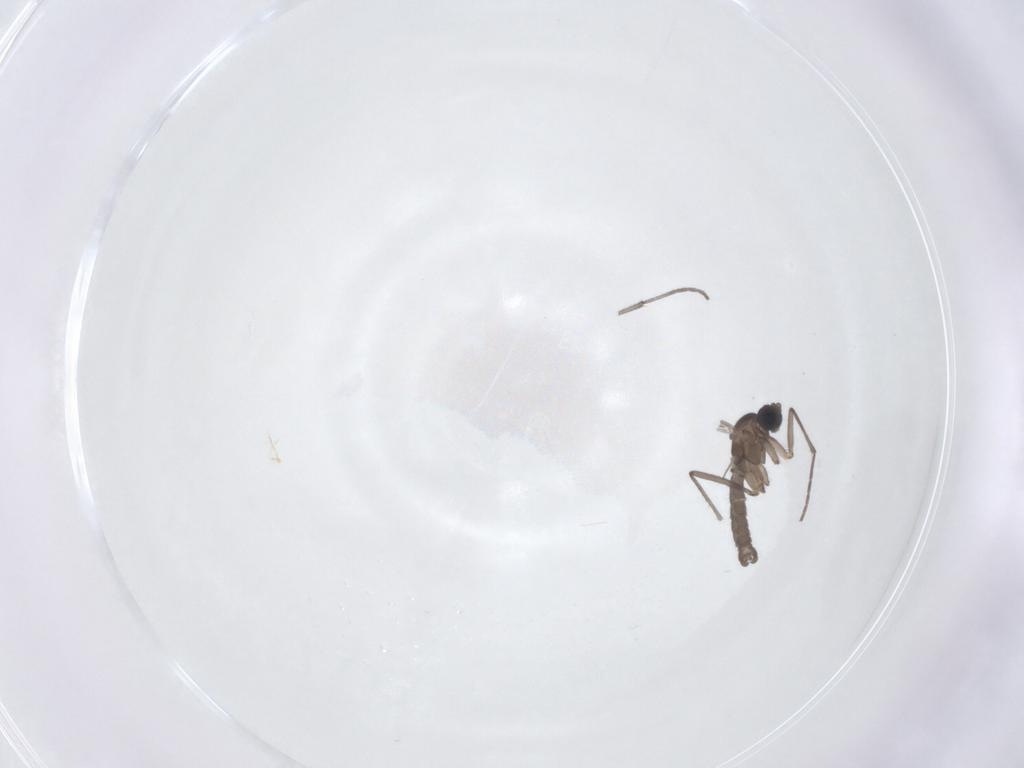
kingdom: Animalia
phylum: Arthropoda
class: Insecta
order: Diptera
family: Sciaridae
